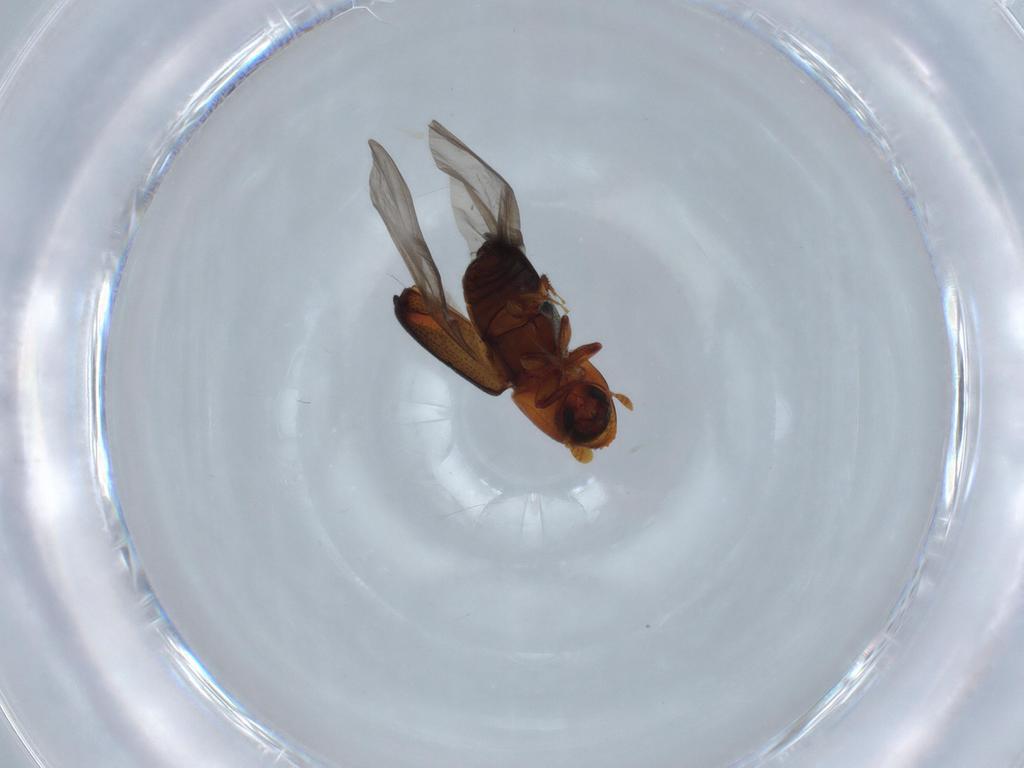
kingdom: Animalia
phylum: Arthropoda
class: Insecta
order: Coleoptera
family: Curculionidae
